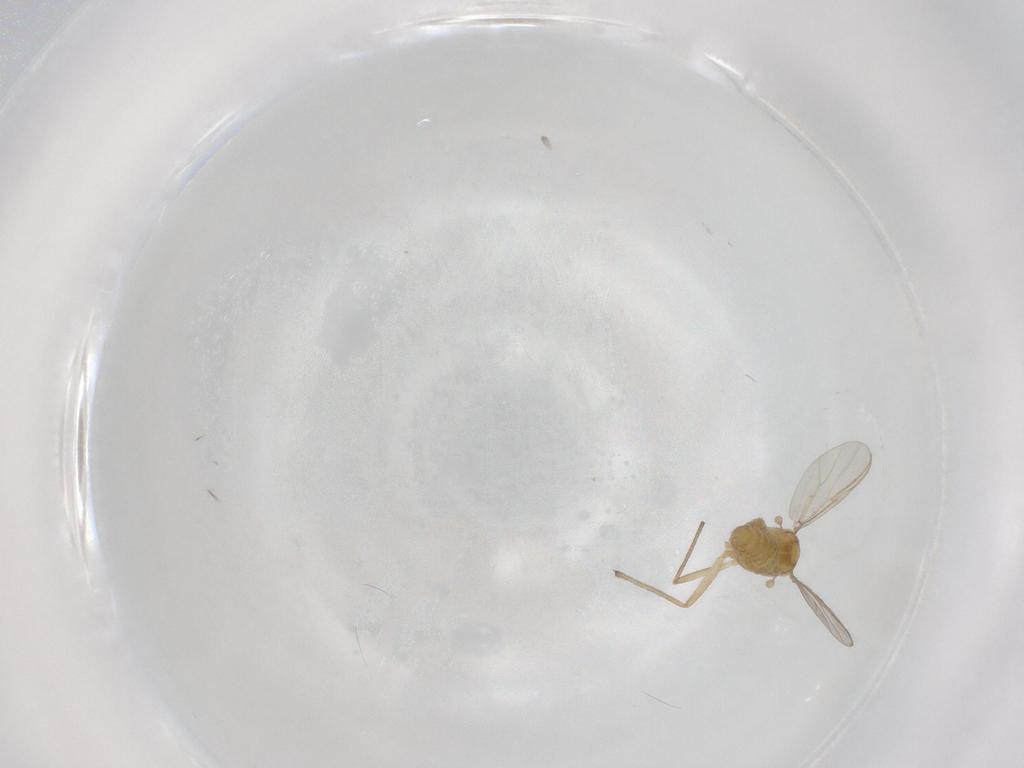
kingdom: Animalia
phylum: Arthropoda
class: Insecta
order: Diptera
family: Chironomidae
